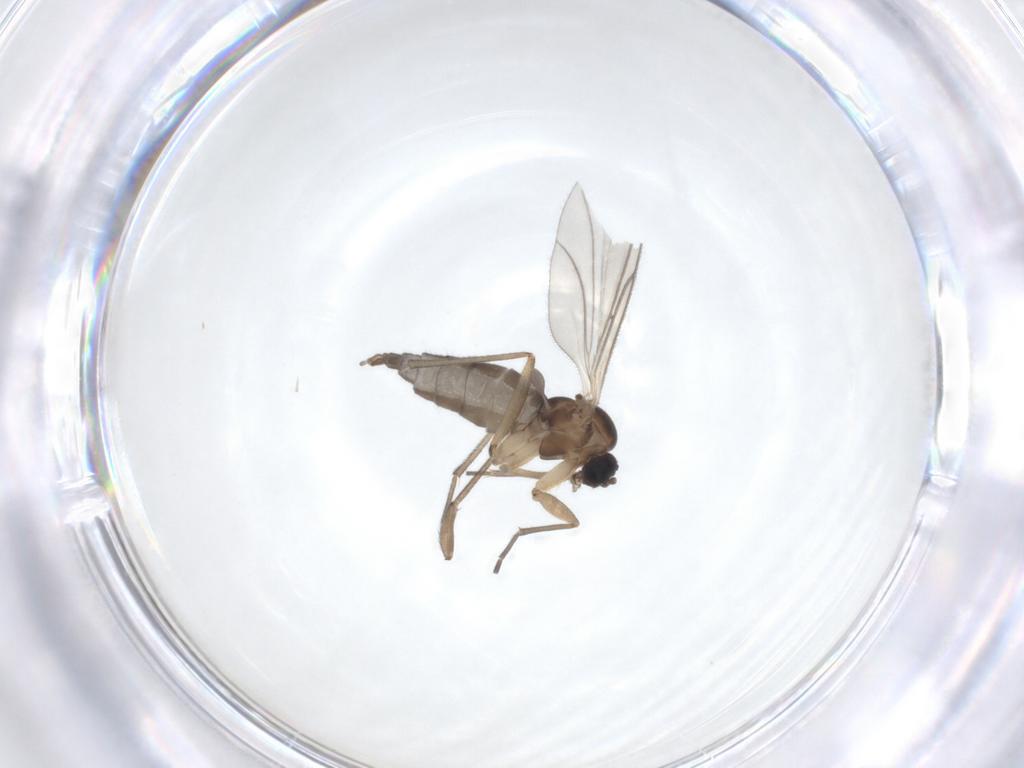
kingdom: Animalia
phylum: Arthropoda
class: Insecta
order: Diptera
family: Sciaridae
